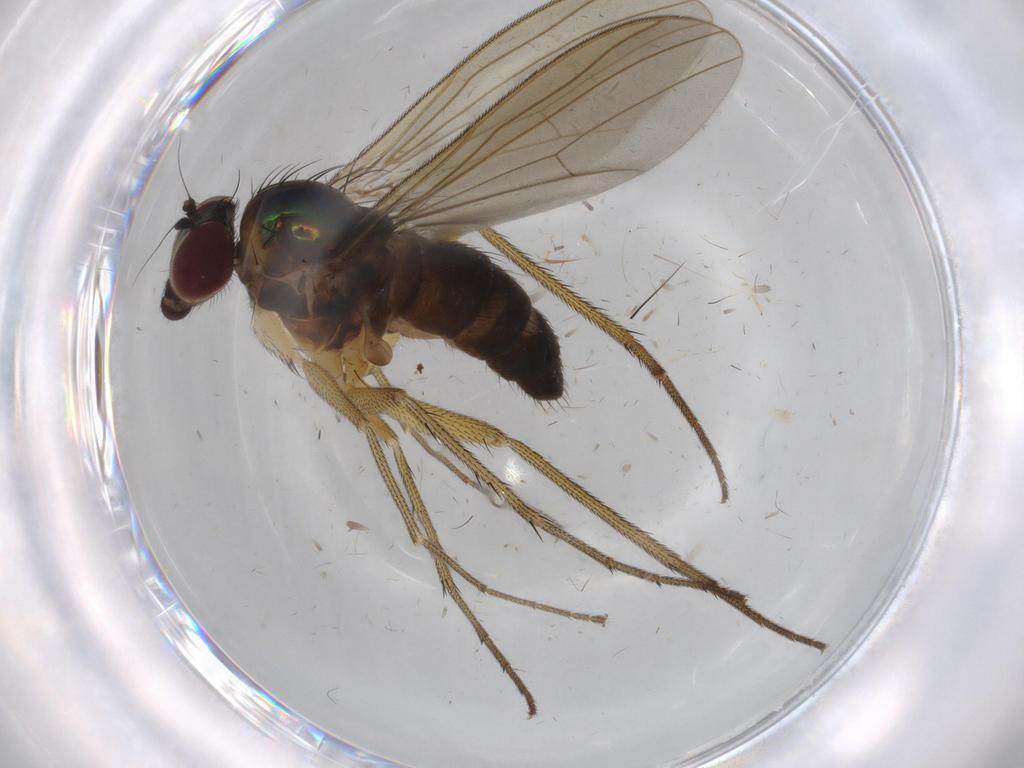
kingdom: Animalia
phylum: Arthropoda
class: Insecta
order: Diptera
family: Dolichopodidae
